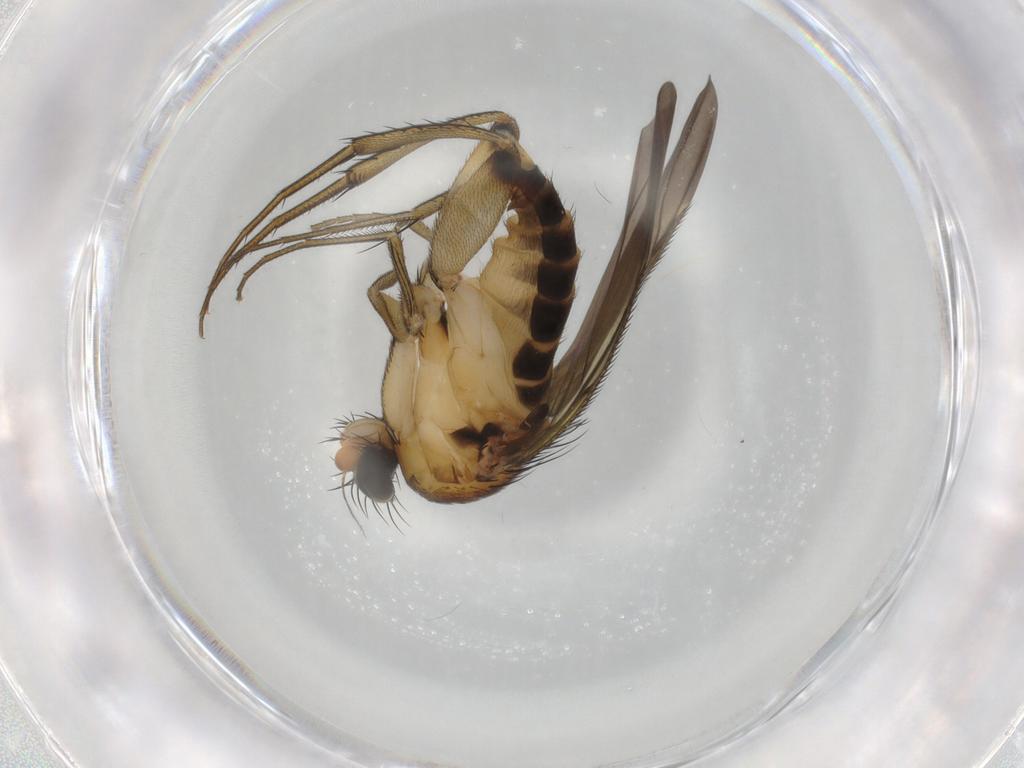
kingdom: Animalia
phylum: Arthropoda
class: Insecta
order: Diptera
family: Phoridae
